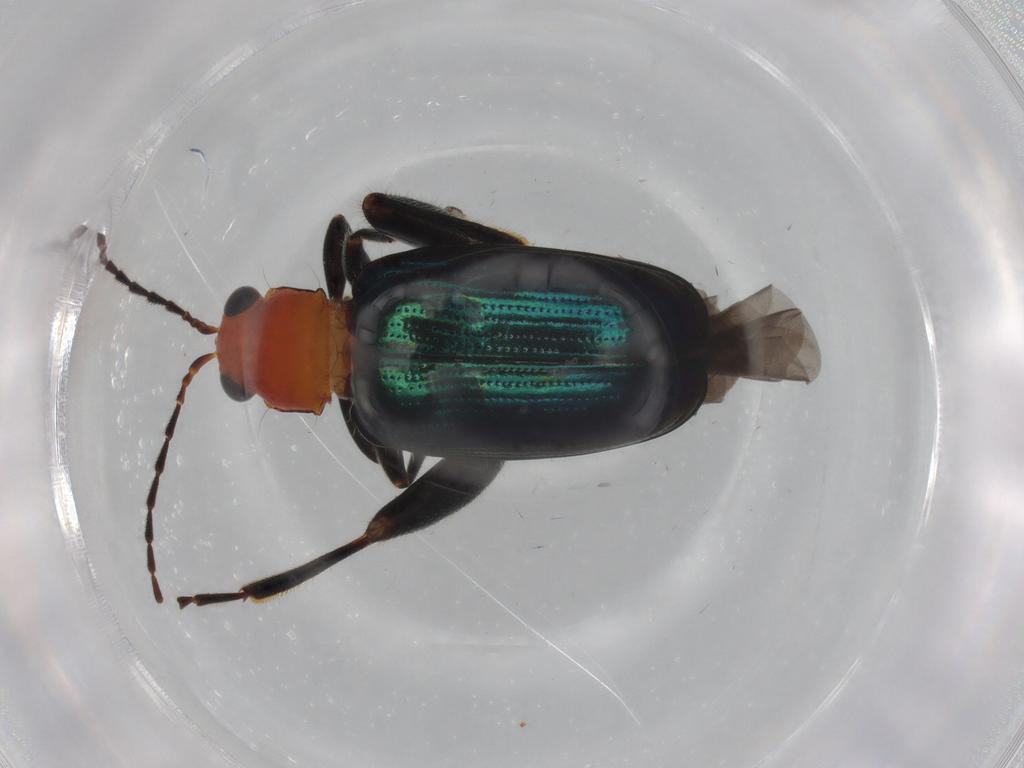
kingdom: Animalia
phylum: Arthropoda
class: Insecta
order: Coleoptera
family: Chrysomelidae
